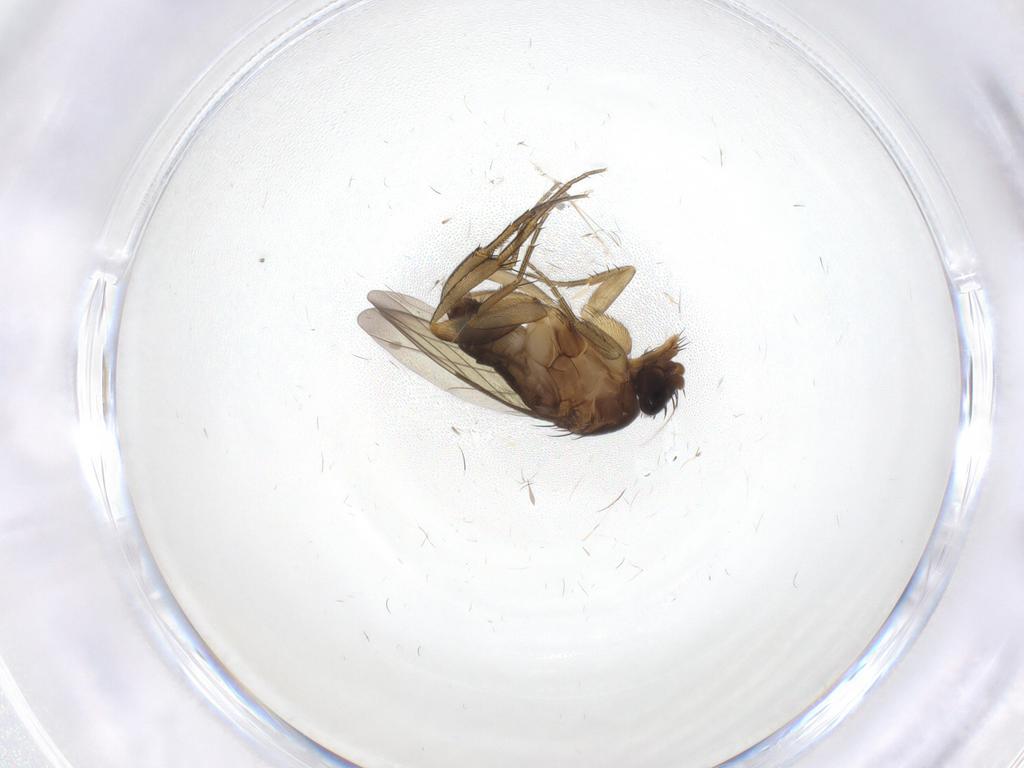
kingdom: Animalia
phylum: Arthropoda
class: Insecta
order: Diptera
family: Phoridae
